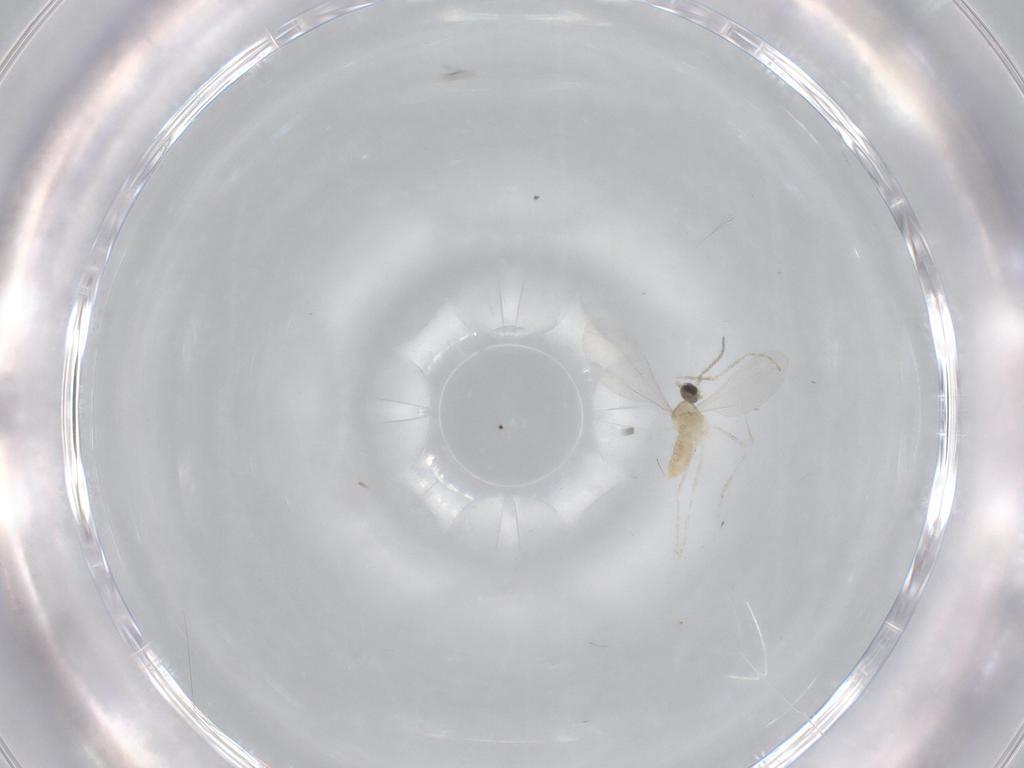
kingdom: Animalia
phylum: Arthropoda
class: Insecta
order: Diptera
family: Cecidomyiidae
